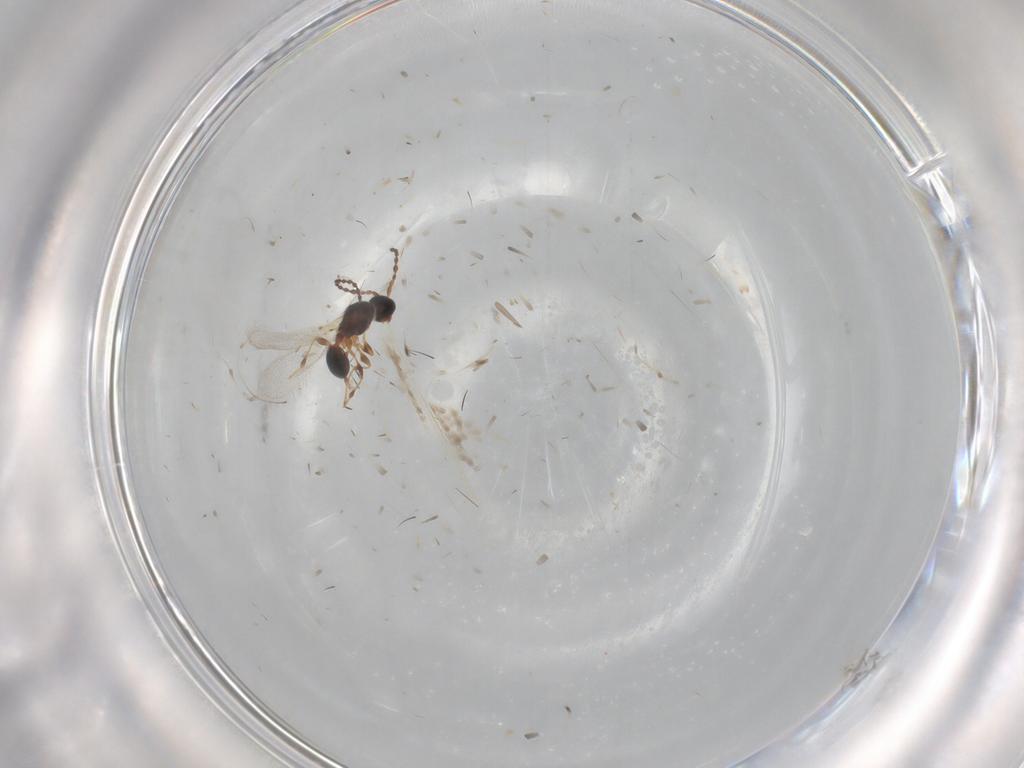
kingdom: Animalia
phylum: Arthropoda
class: Insecta
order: Hymenoptera
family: Diapriidae
